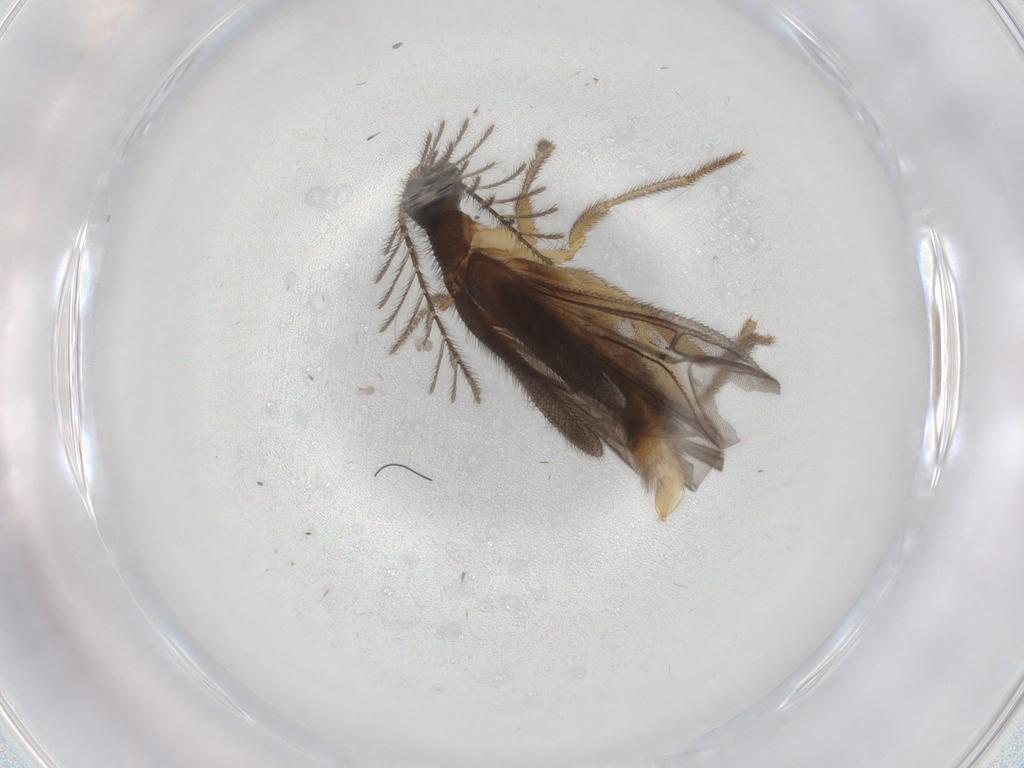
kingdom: Animalia
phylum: Arthropoda
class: Insecta
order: Coleoptera
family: Phengodidae
